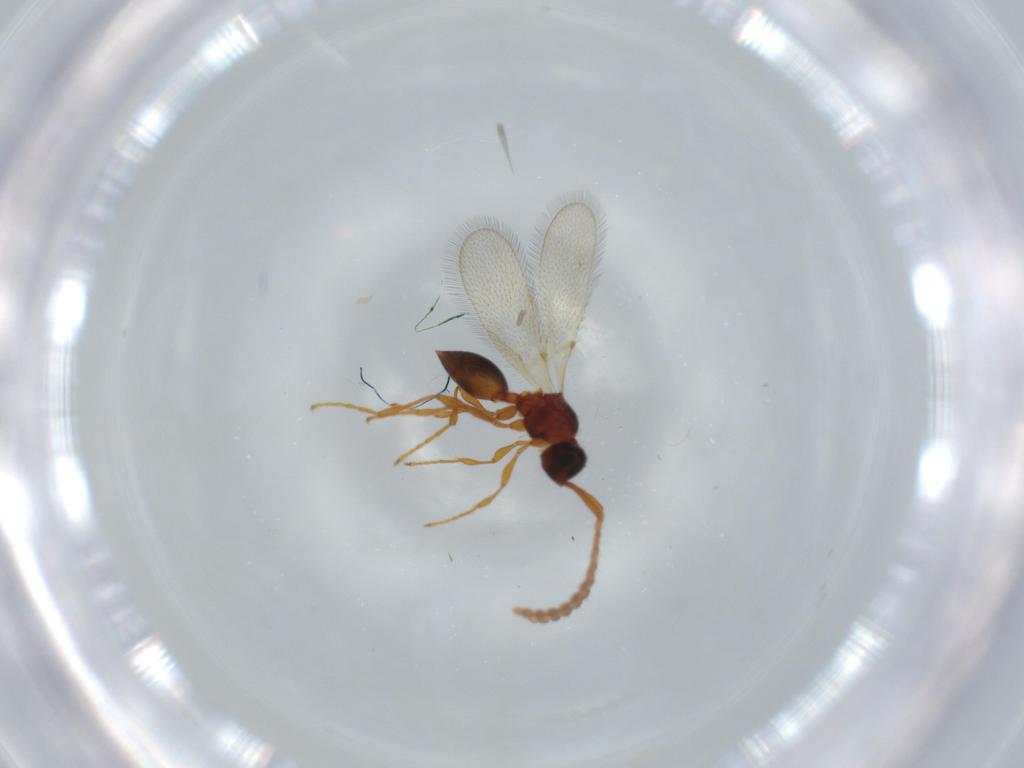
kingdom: Animalia
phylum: Arthropoda
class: Insecta
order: Hymenoptera
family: Diapriidae
